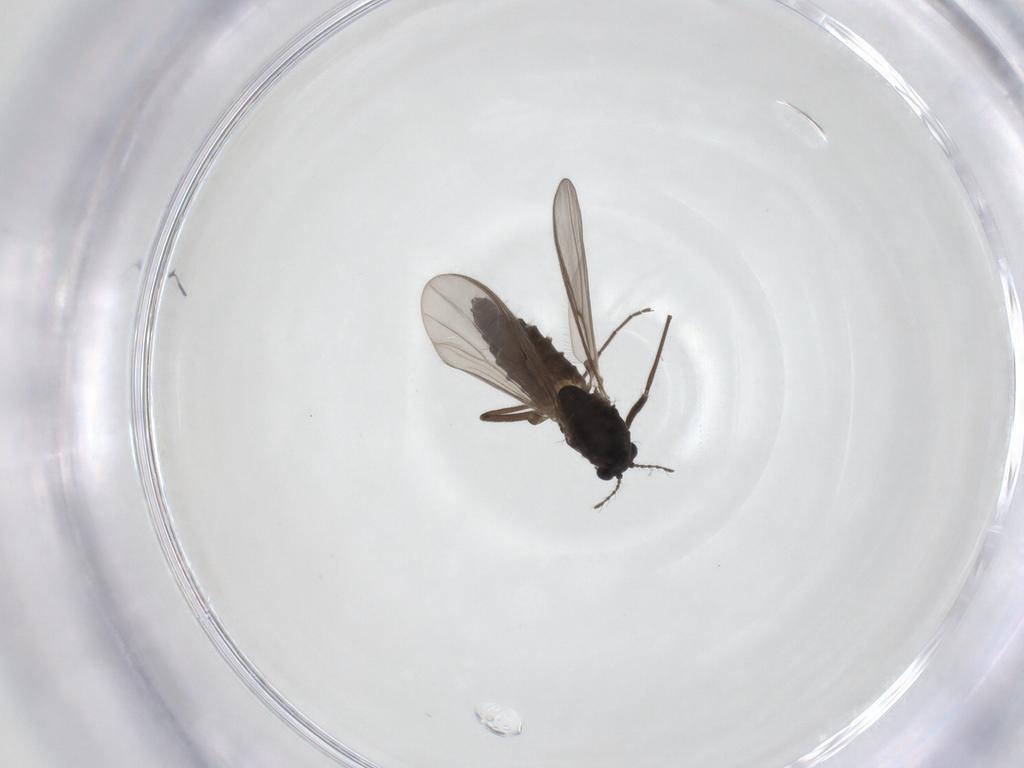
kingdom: Animalia
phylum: Arthropoda
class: Insecta
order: Diptera
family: Chironomidae
